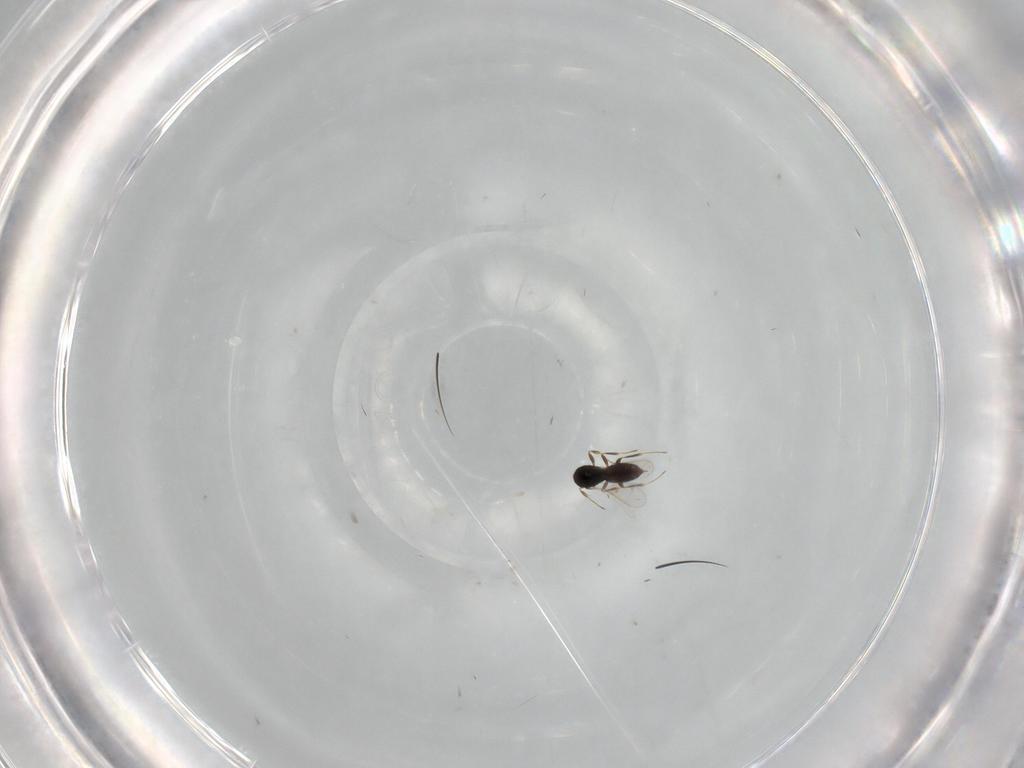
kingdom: Animalia
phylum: Arthropoda
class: Insecta
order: Hymenoptera
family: Scelionidae
